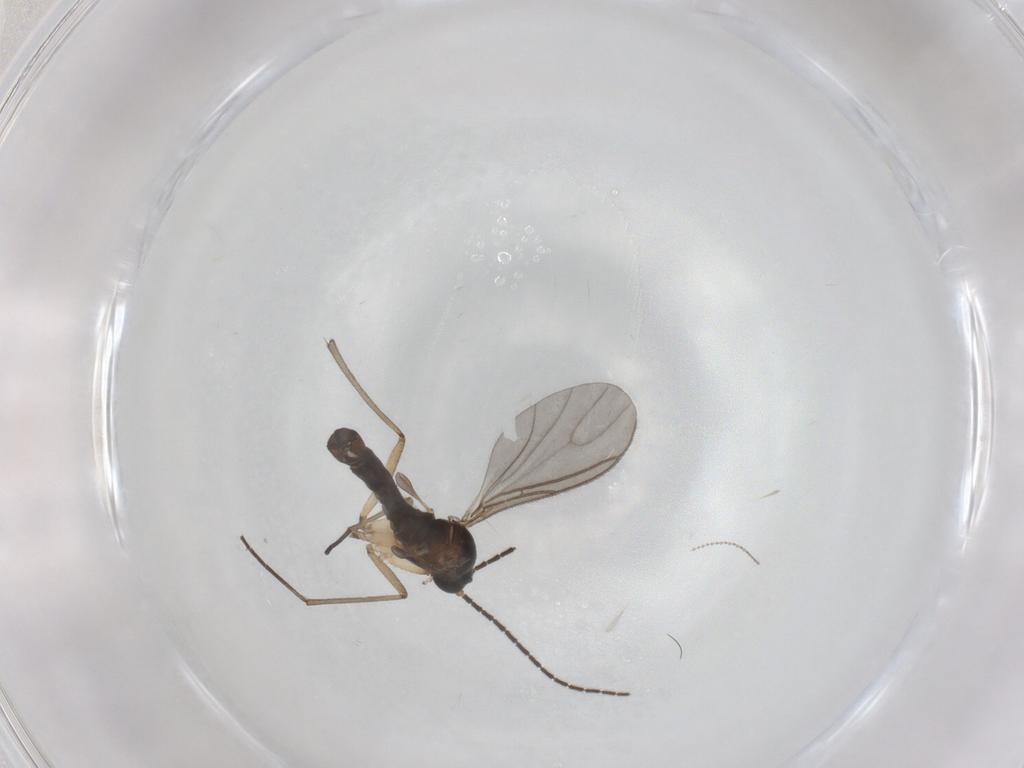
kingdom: Animalia
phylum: Arthropoda
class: Insecta
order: Diptera
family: Sciaridae
